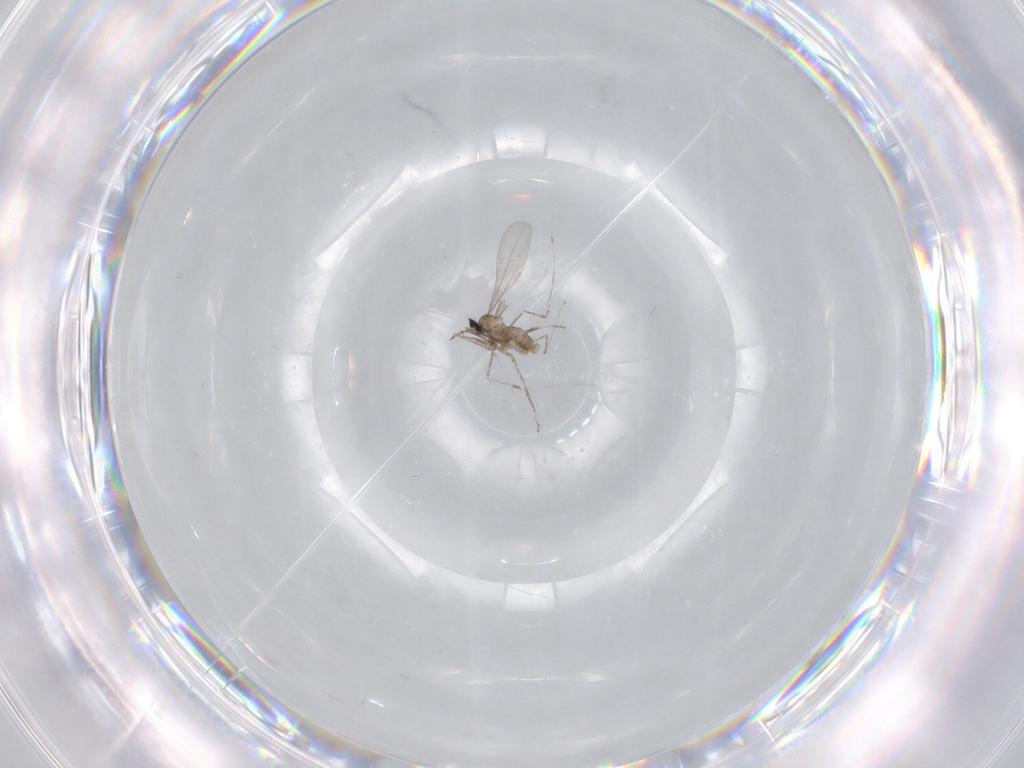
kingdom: Animalia
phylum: Arthropoda
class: Insecta
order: Diptera
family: Cecidomyiidae
